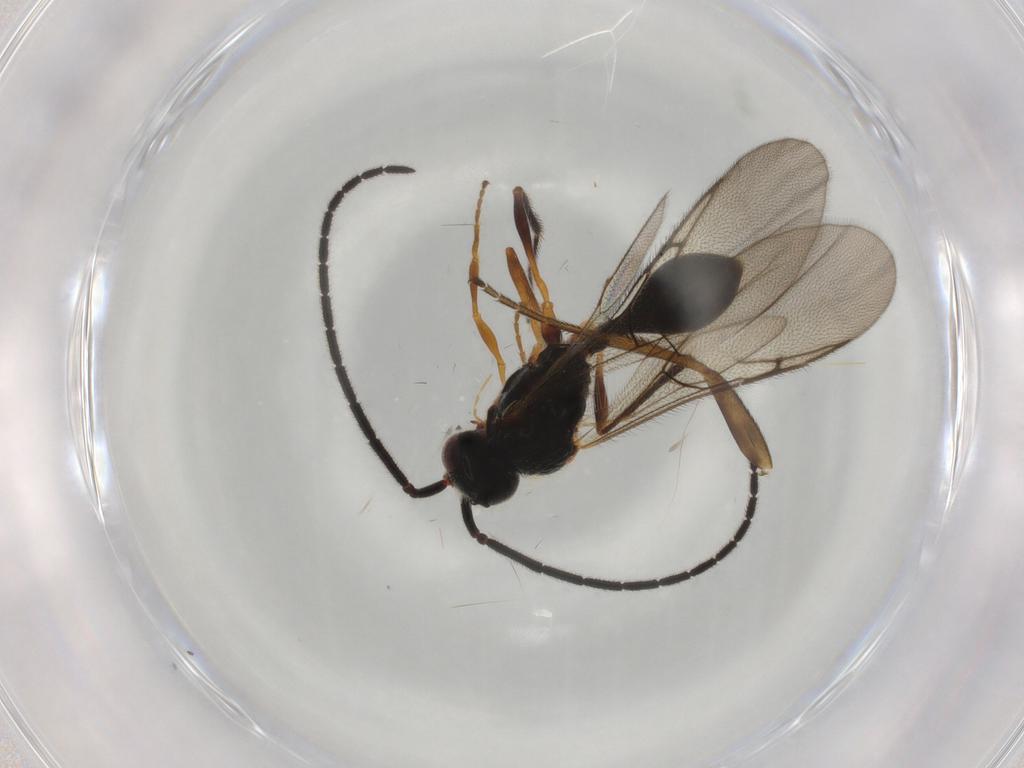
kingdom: Animalia
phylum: Arthropoda
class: Insecta
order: Hymenoptera
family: Diapriidae
